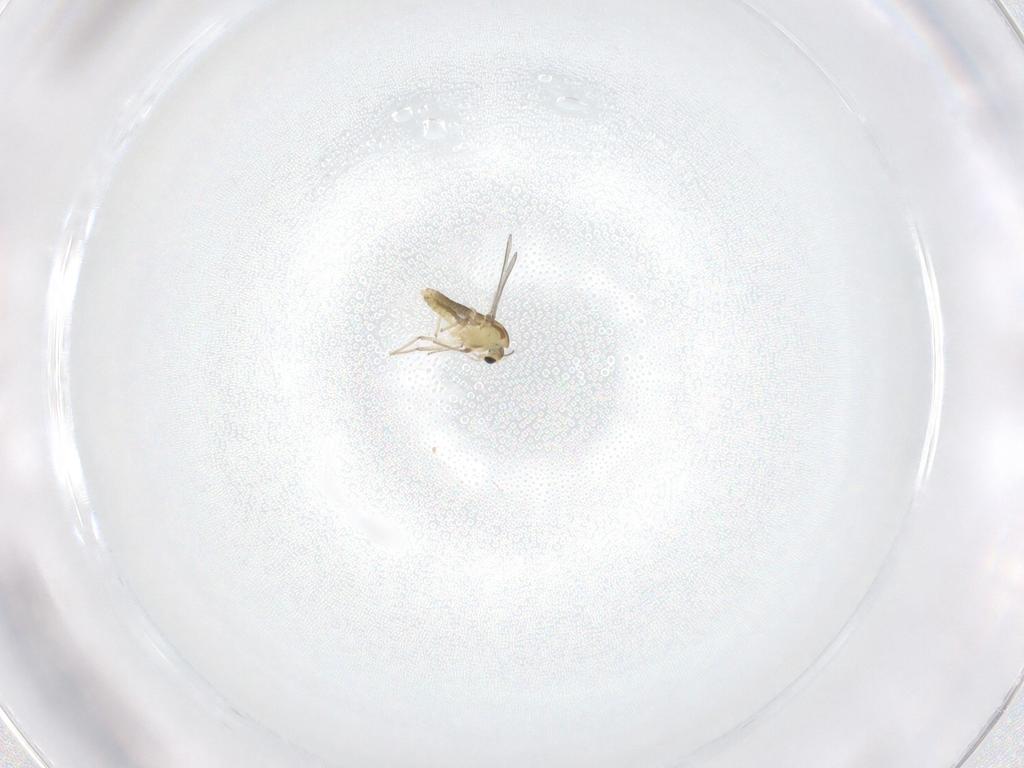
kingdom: Animalia
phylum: Arthropoda
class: Insecta
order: Diptera
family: Chironomidae
